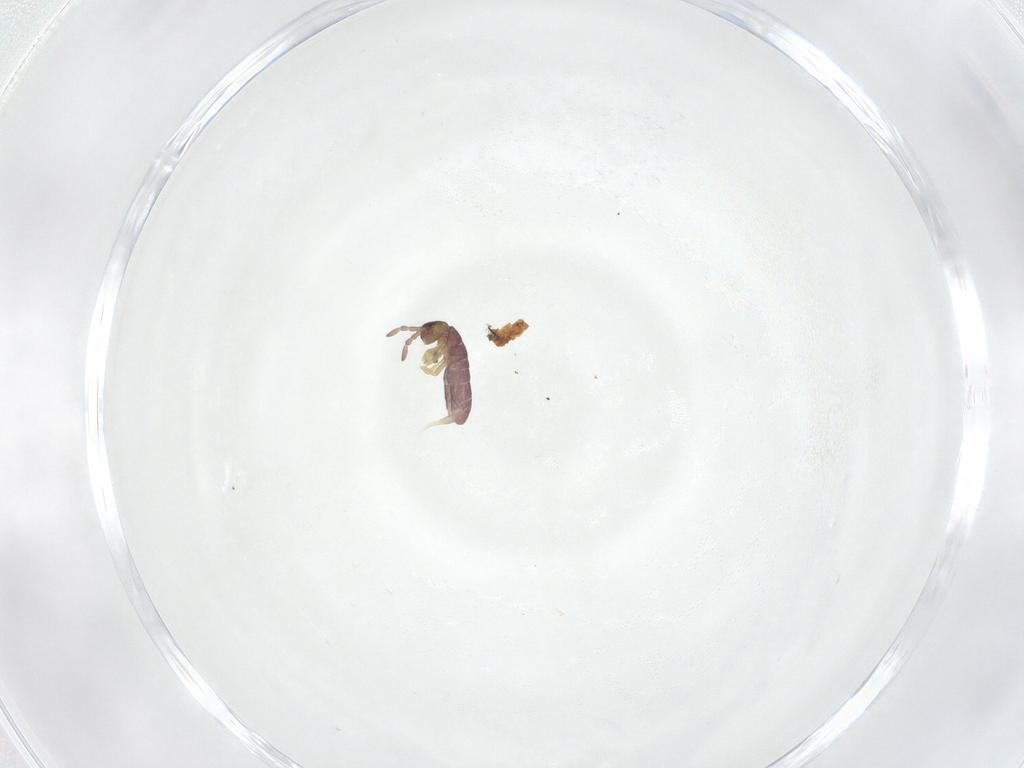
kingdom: Animalia
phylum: Arthropoda
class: Collembola
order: Entomobryomorpha
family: Isotomidae
